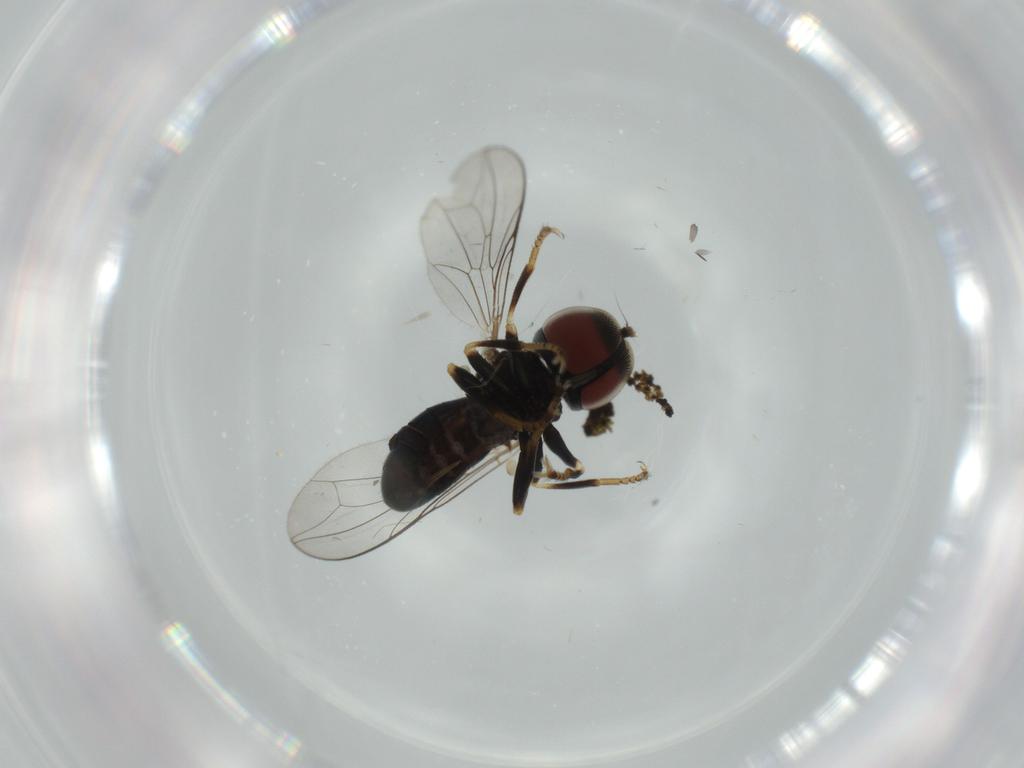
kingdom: Animalia
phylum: Arthropoda
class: Insecta
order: Diptera
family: Pipunculidae
